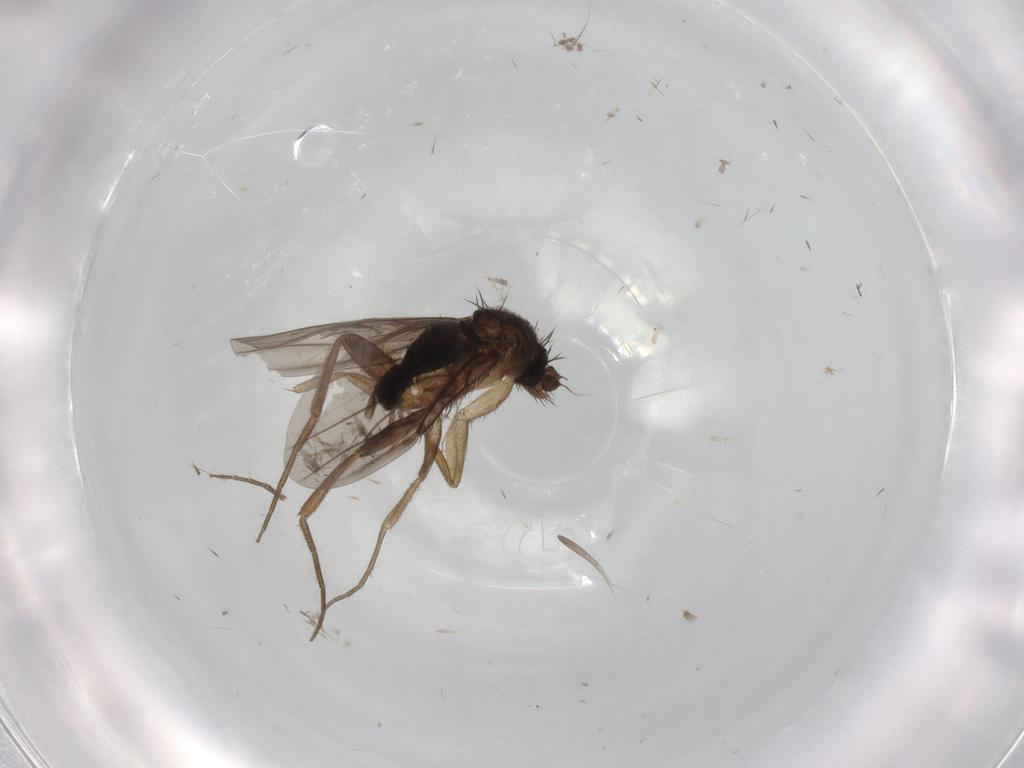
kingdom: Animalia
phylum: Arthropoda
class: Insecta
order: Diptera
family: Phoridae
